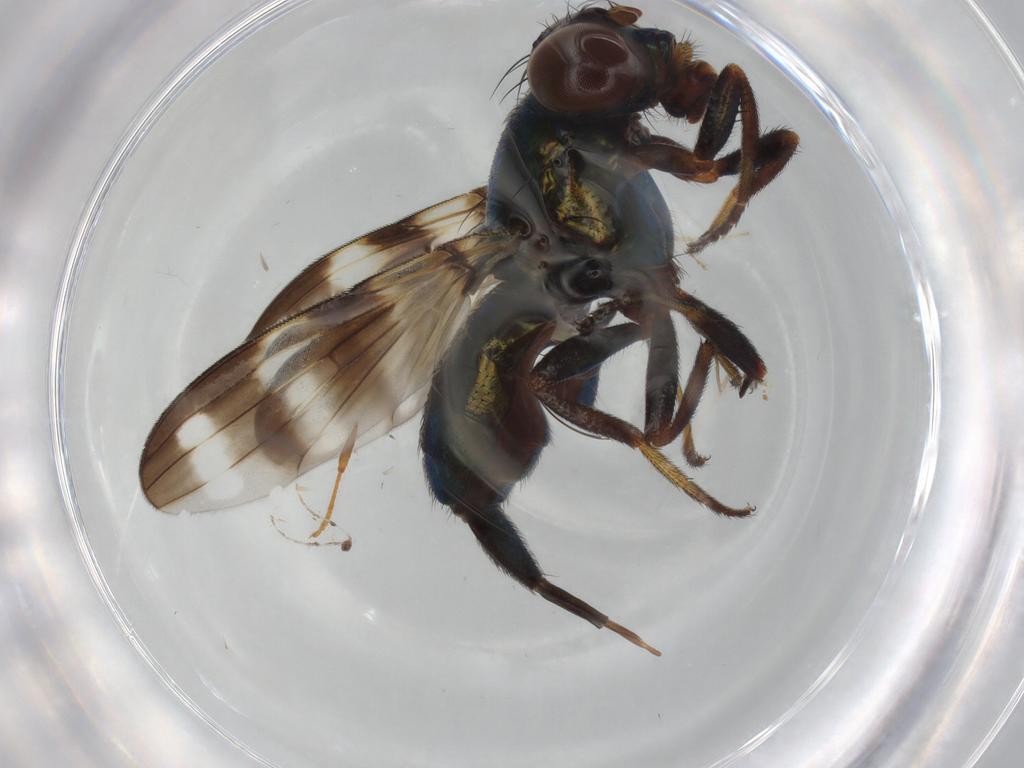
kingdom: Animalia
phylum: Arthropoda
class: Insecta
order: Diptera
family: Ulidiidae
